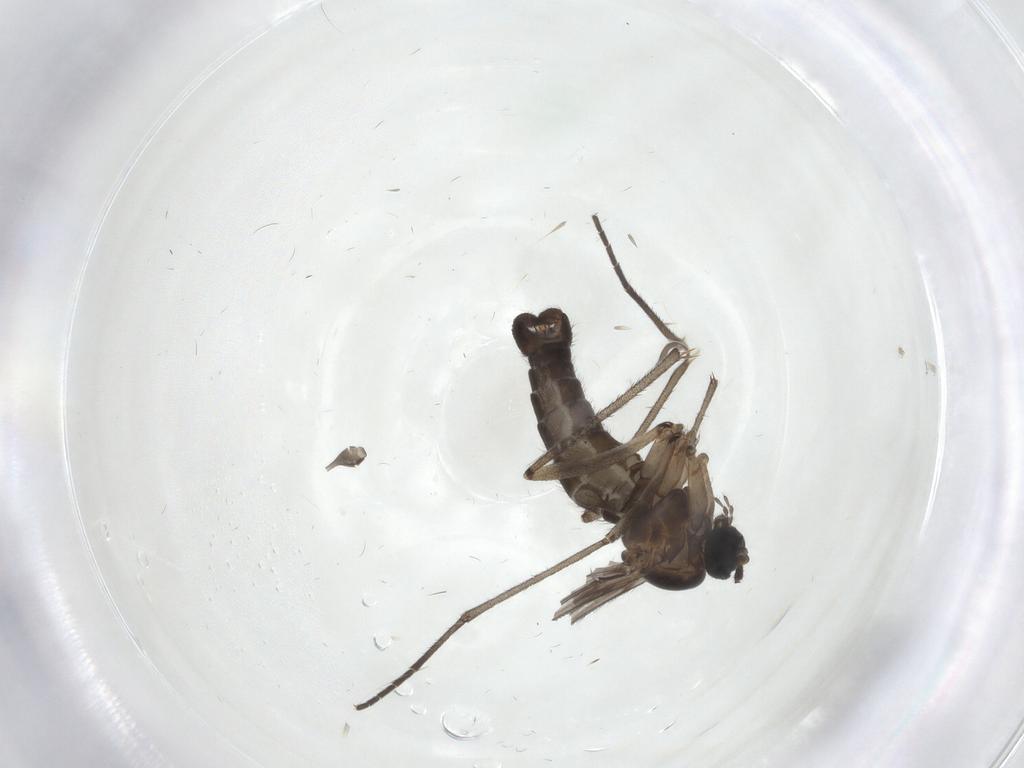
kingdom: Animalia
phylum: Arthropoda
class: Insecta
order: Diptera
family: Sciaridae
